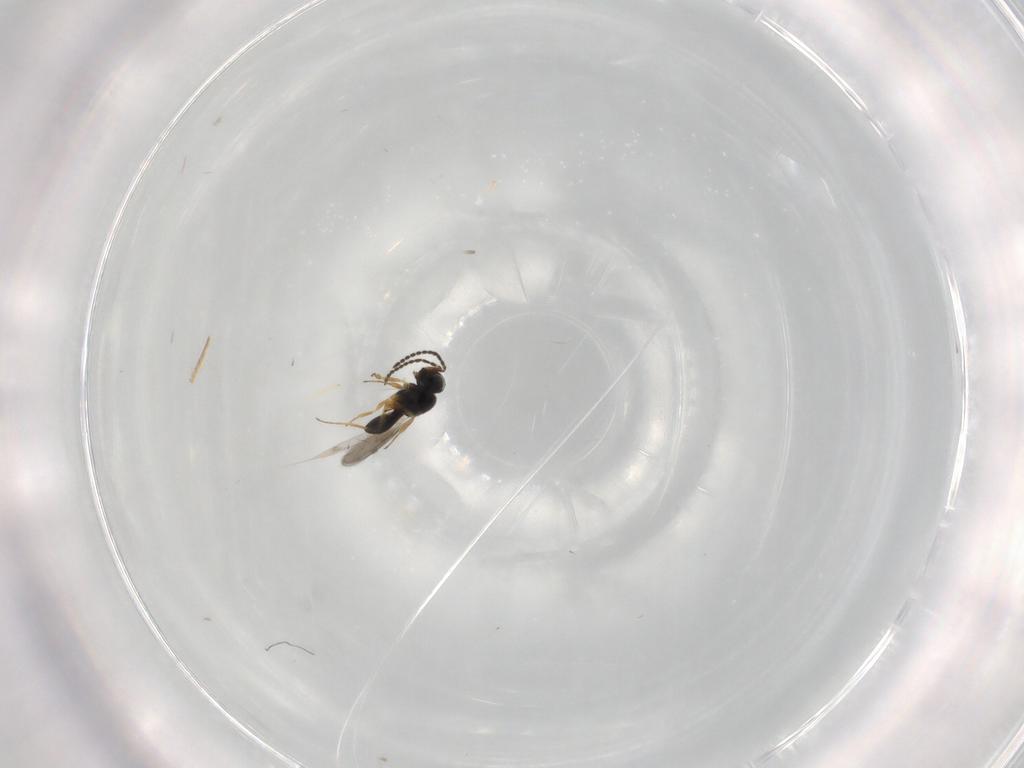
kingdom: Animalia
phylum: Arthropoda
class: Insecta
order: Hymenoptera
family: Scelionidae
